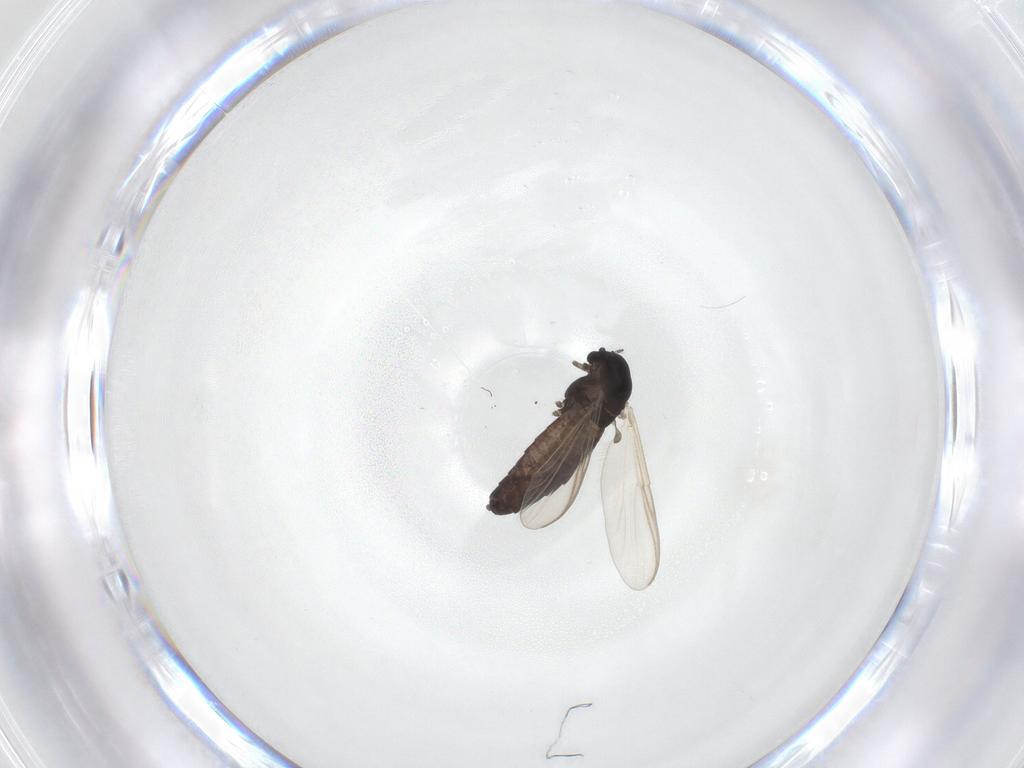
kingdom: Animalia
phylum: Arthropoda
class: Insecta
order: Diptera
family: Chironomidae
